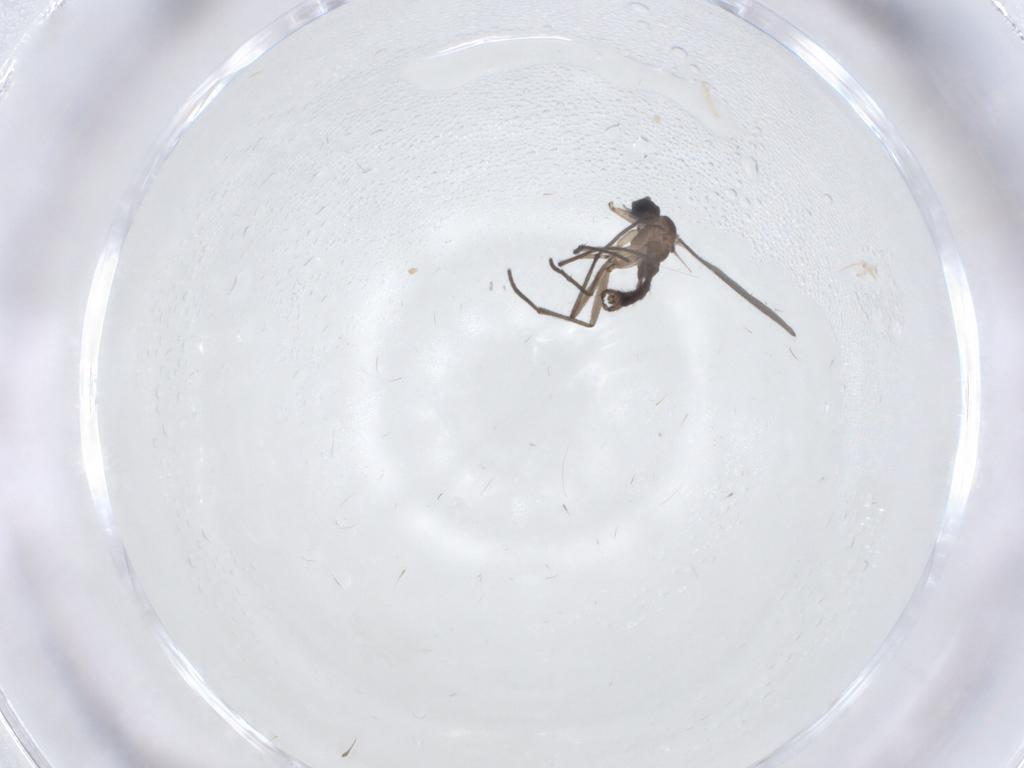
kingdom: Animalia
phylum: Arthropoda
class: Insecta
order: Diptera
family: Sciaridae
